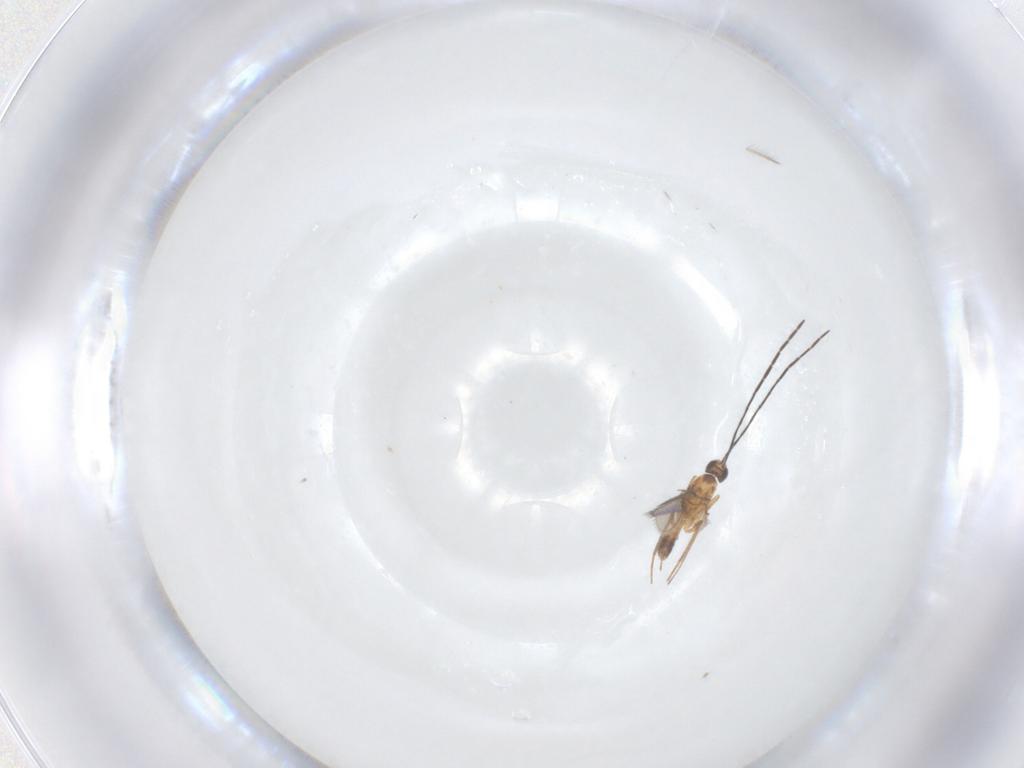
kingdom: Animalia
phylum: Arthropoda
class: Insecta
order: Hymenoptera
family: Mymaridae
